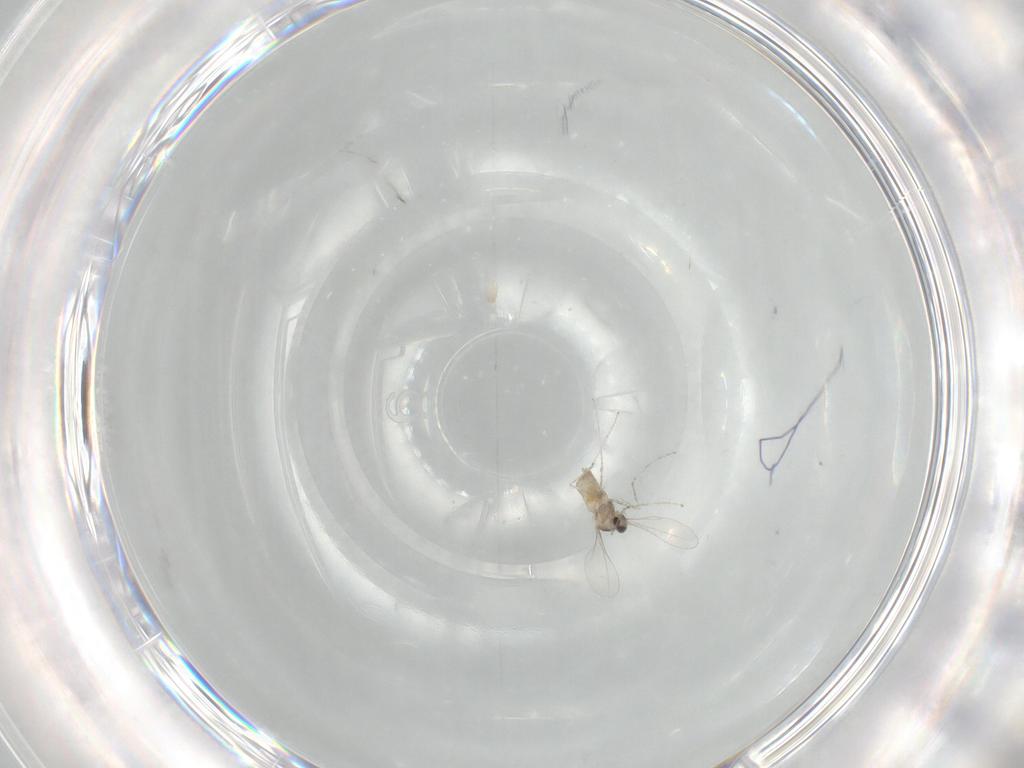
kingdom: Animalia
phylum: Arthropoda
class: Insecta
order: Diptera
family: Cecidomyiidae
